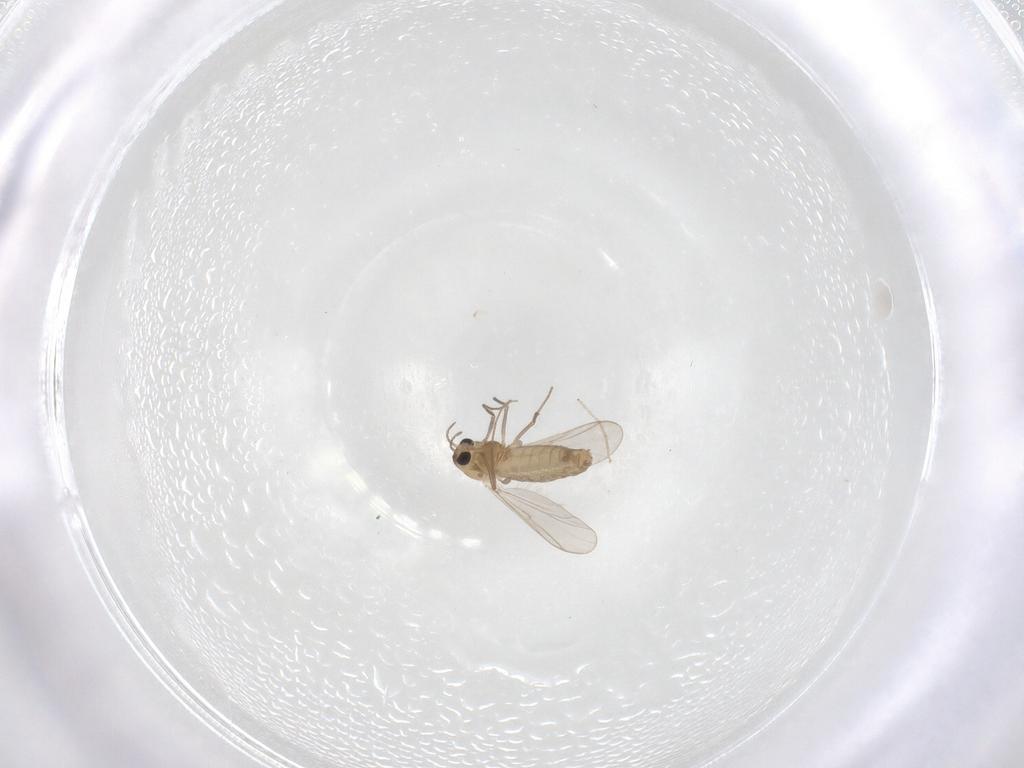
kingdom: Animalia
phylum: Arthropoda
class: Insecta
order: Diptera
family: Chironomidae
